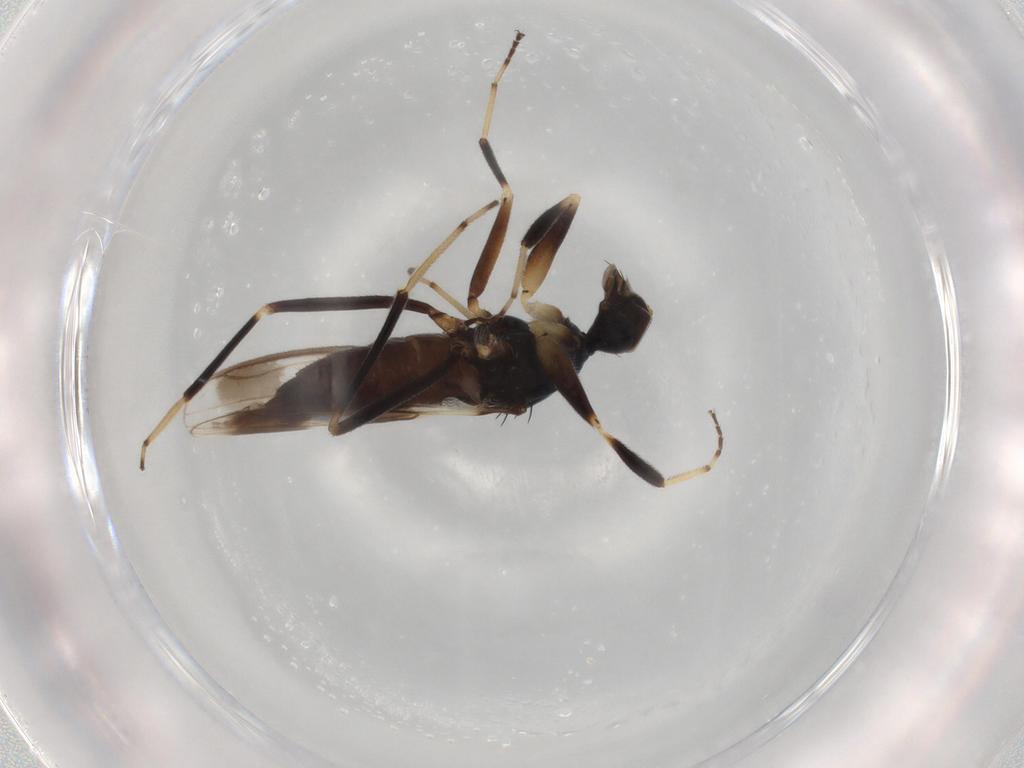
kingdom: Animalia
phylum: Arthropoda
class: Insecta
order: Diptera
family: Hybotidae
